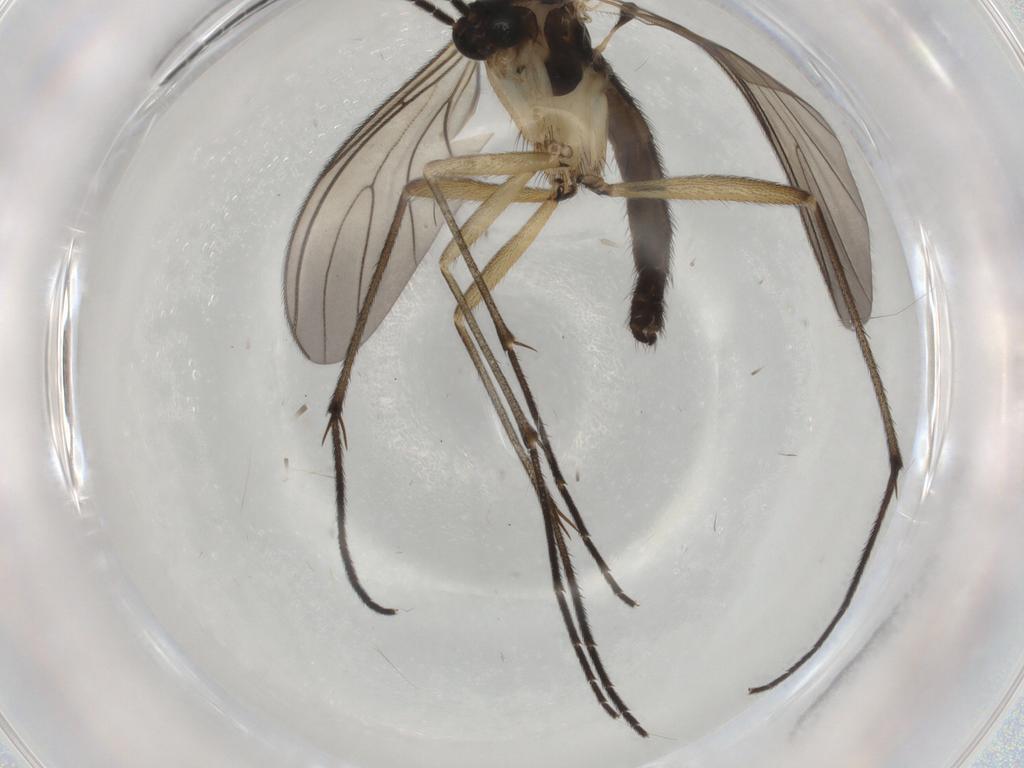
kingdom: Animalia
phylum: Arthropoda
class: Insecta
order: Diptera
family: Sciaridae
